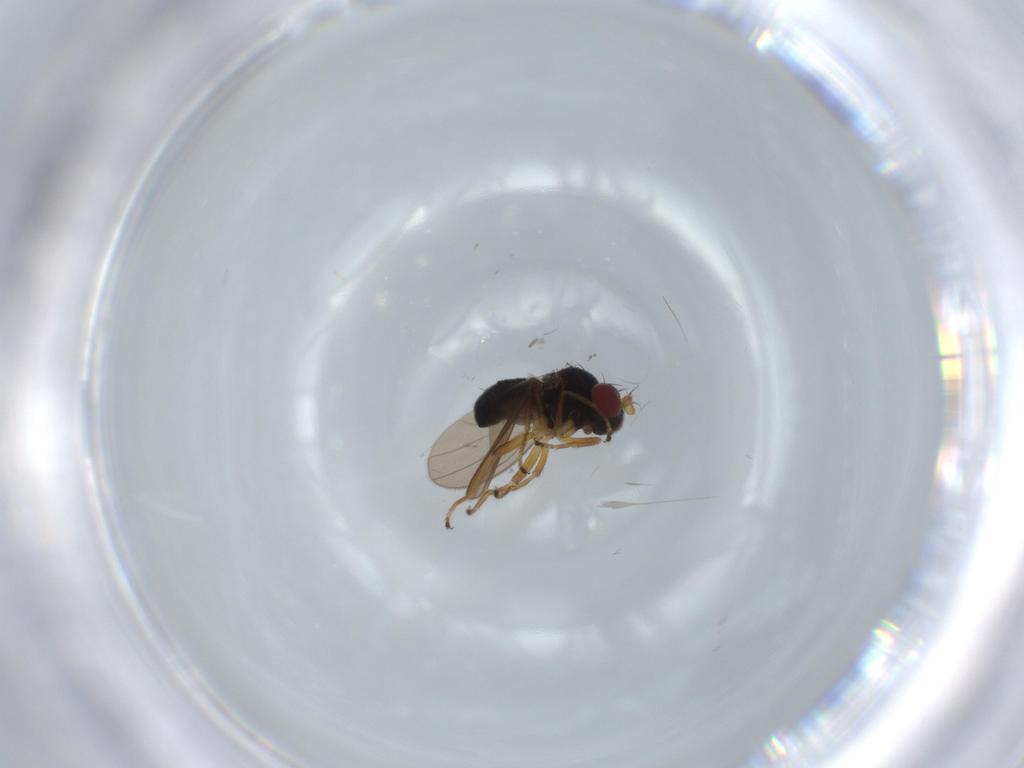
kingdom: Animalia
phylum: Arthropoda
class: Insecta
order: Diptera
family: Ephydridae
